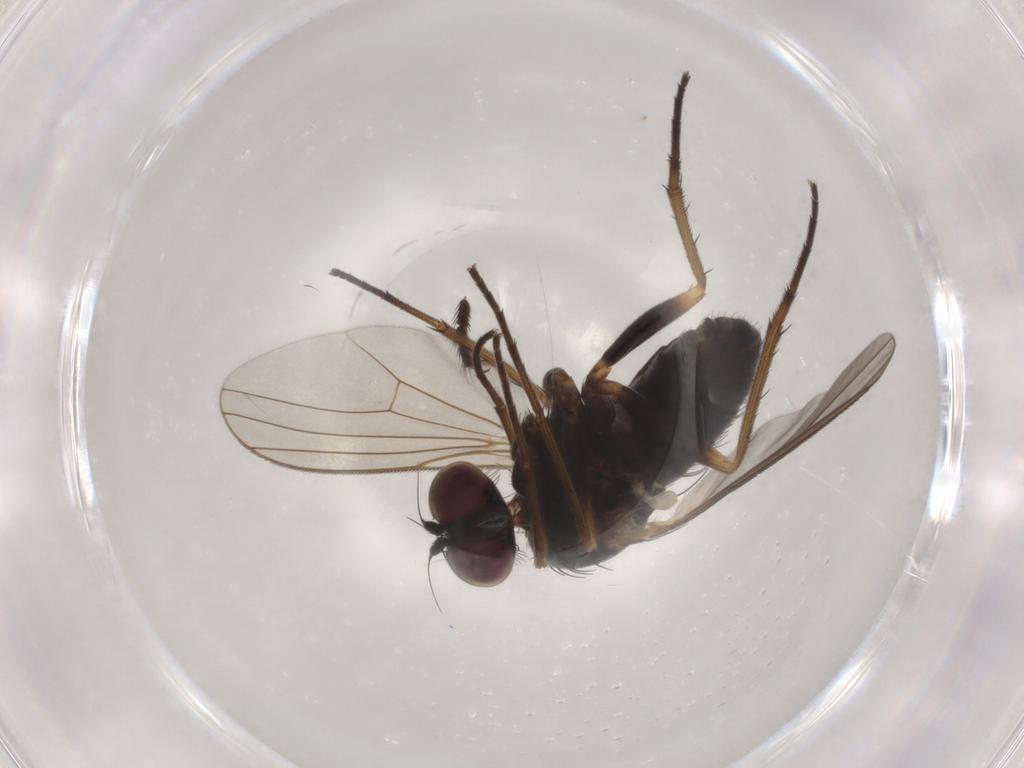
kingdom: Animalia
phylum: Arthropoda
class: Insecta
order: Diptera
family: Dolichopodidae
